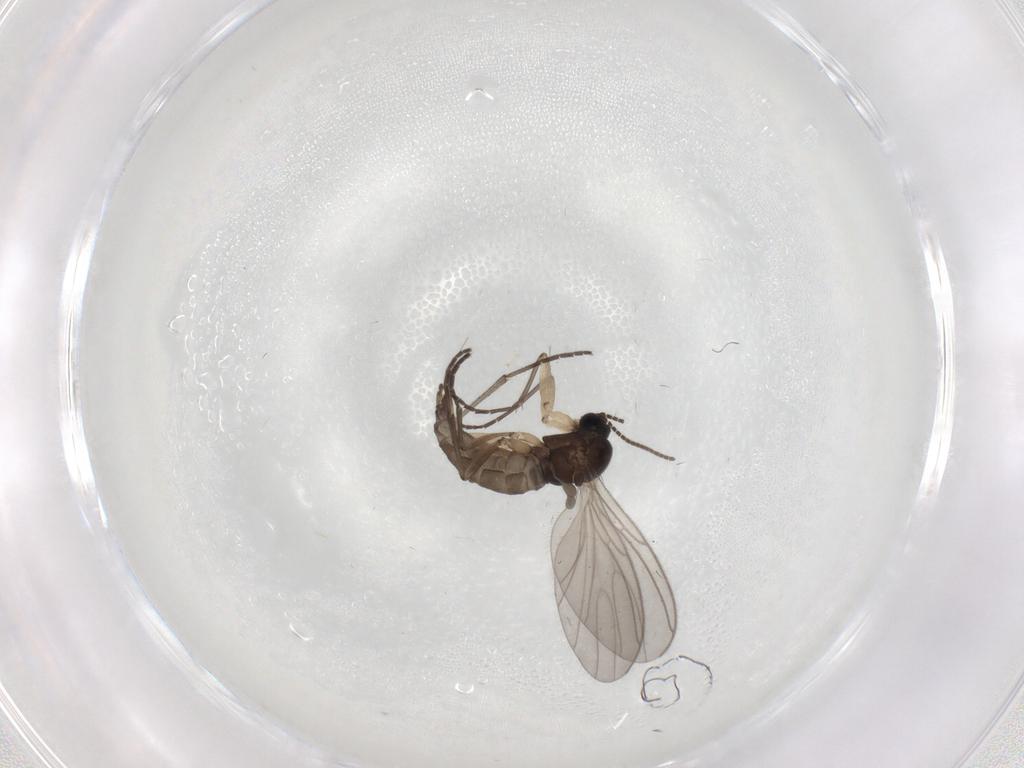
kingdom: Animalia
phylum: Arthropoda
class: Insecta
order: Diptera
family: Sciaridae
